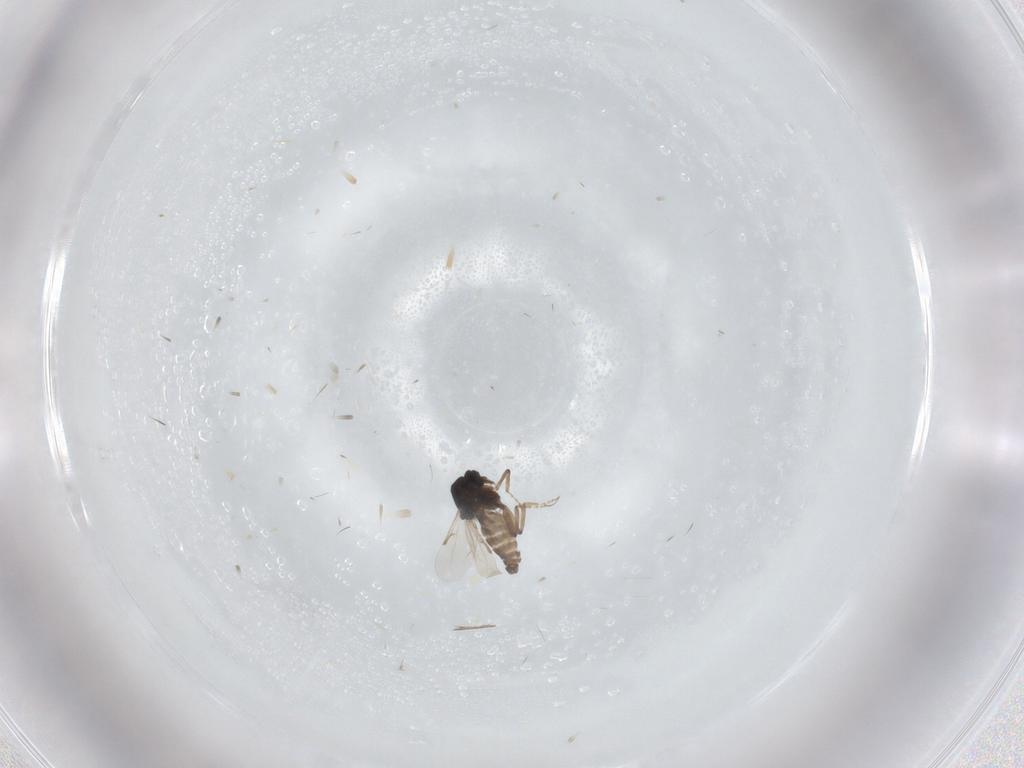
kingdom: Animalia
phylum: Arthropoda
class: Insecta
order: Diptera
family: Ceratopogonidae
